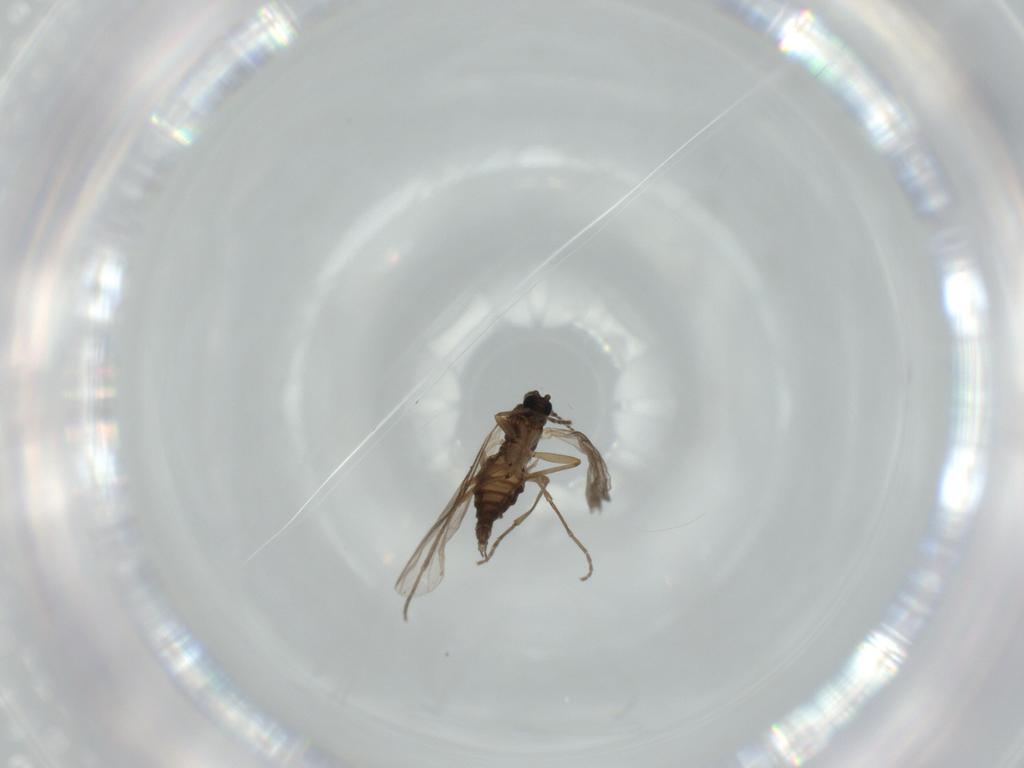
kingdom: Animalia
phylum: Arthropoda
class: Insecta
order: Diptera
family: Sphaeroceridae
